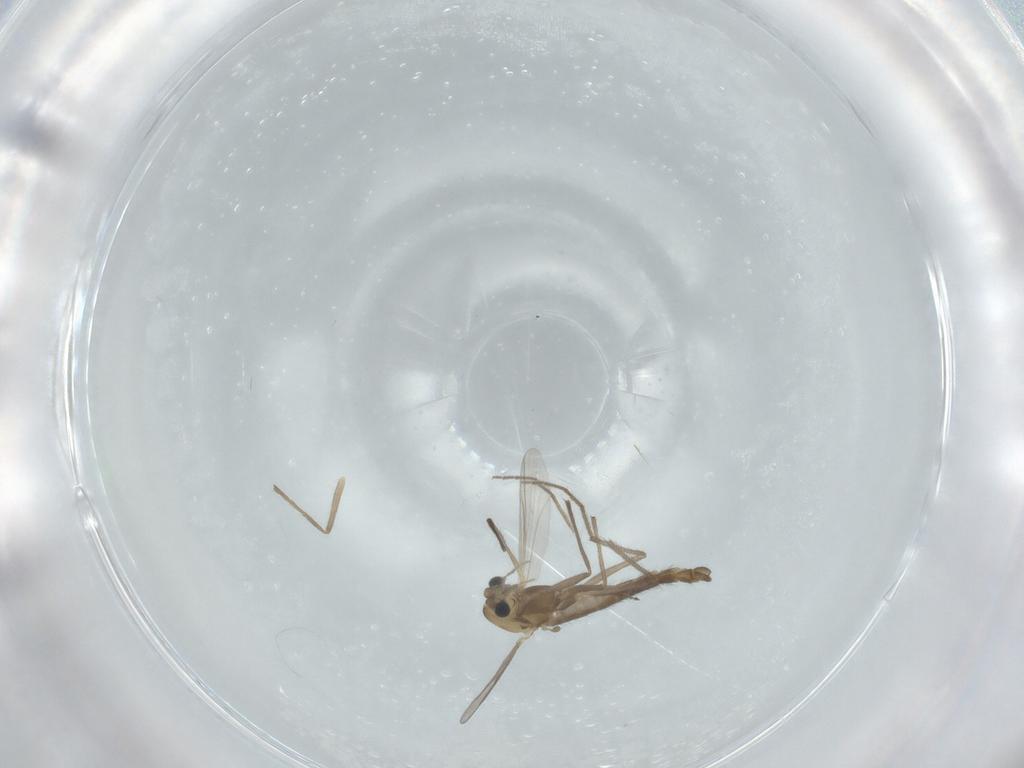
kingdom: Animalia
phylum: Arthropoda
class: Insecta
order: Diptera
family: Chironomidae
